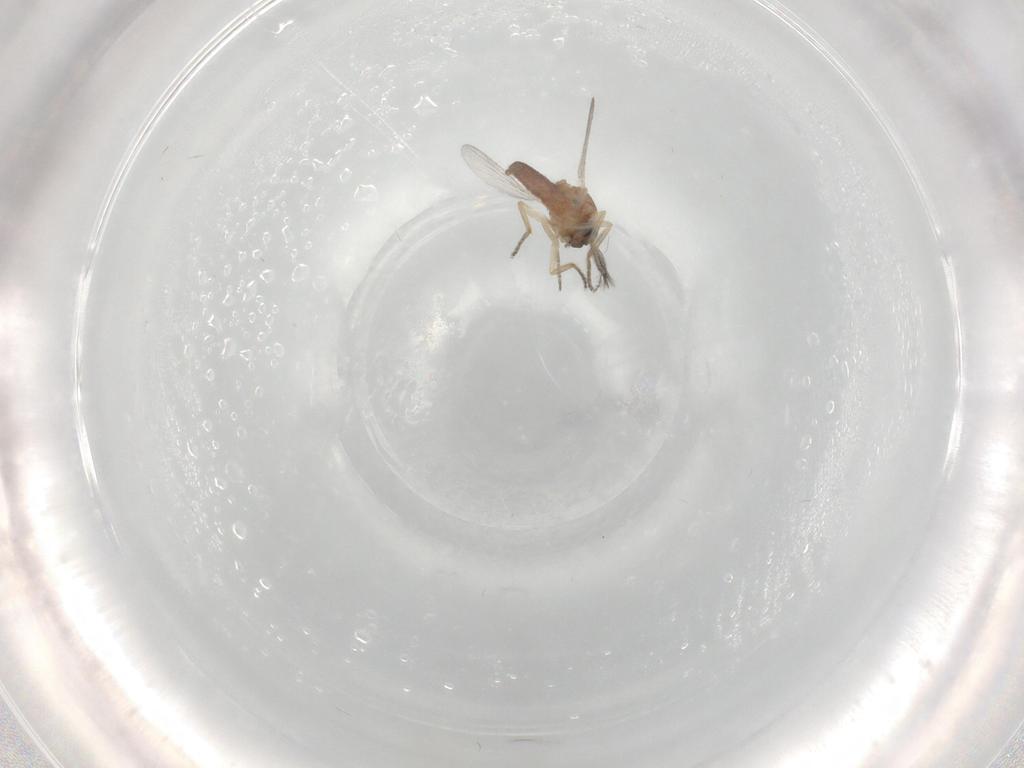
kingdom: Animalia
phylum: Arthropoda
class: Insecta
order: Diptera
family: Ceratopogonidae
